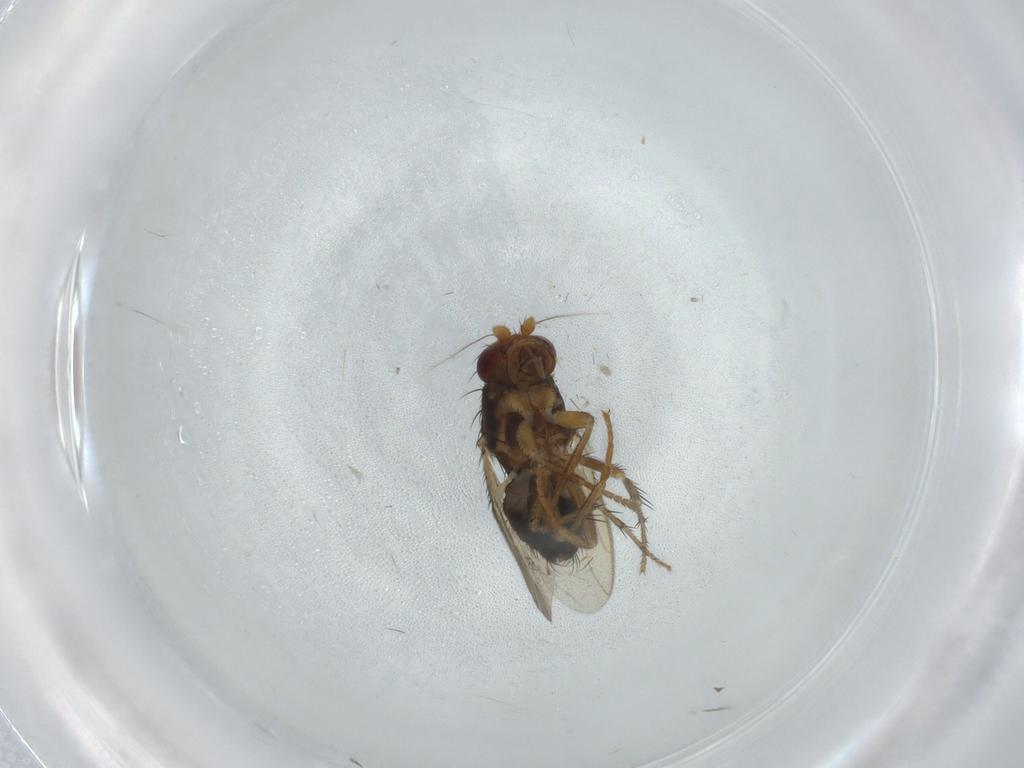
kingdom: Animalia
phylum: Arthropoda
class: Insecta
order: Diptera
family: Sphaeroceridae
